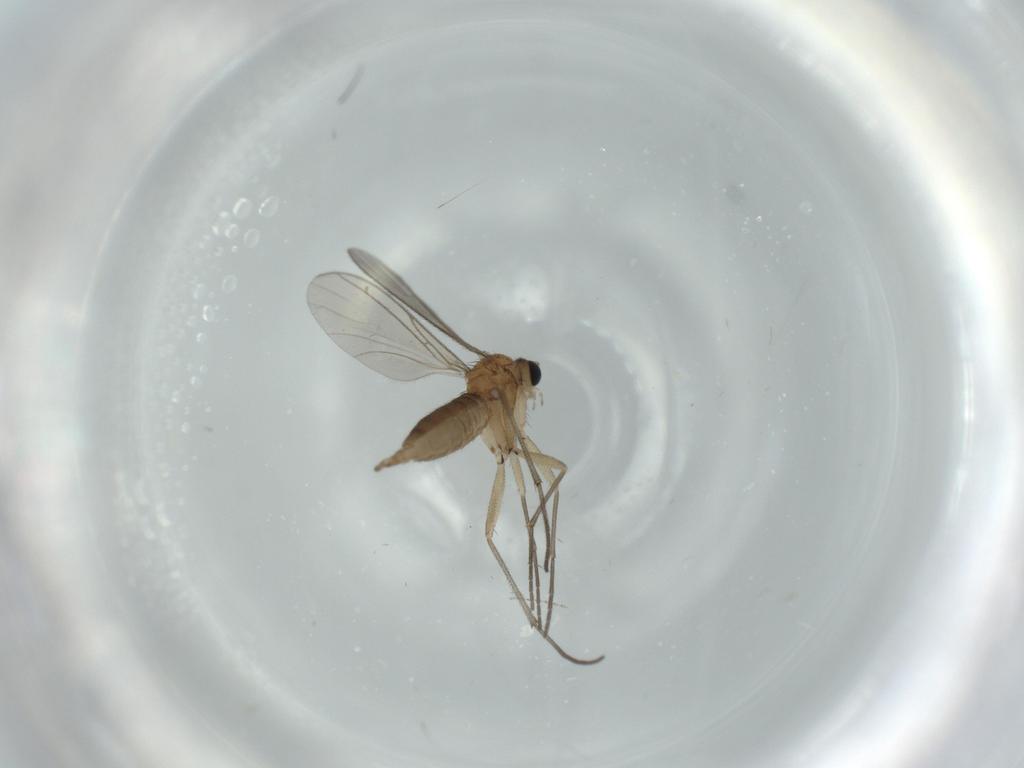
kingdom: Animalia
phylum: Arthropoda
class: Insecta
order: Diptera
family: Sciaridae
